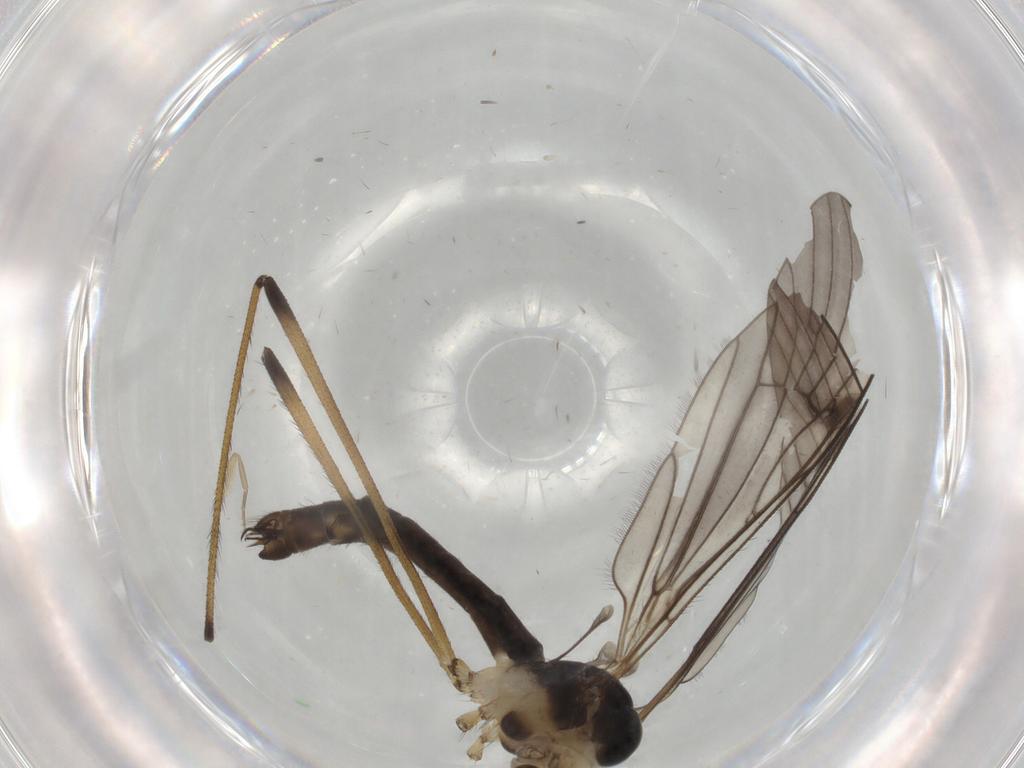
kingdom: Animalia
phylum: Arthropoda
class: Insecta
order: Diptera
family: Limoniidae
